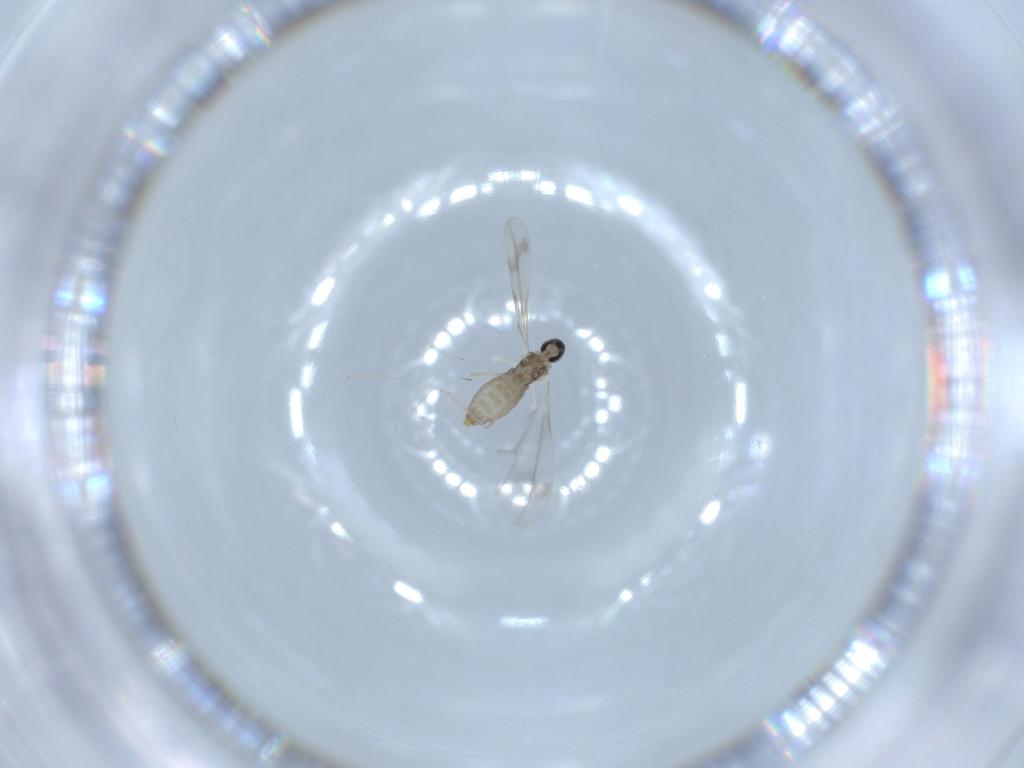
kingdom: Animalia
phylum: Arthropoda
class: Insecta
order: Diptera
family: Cecidomyiidae
